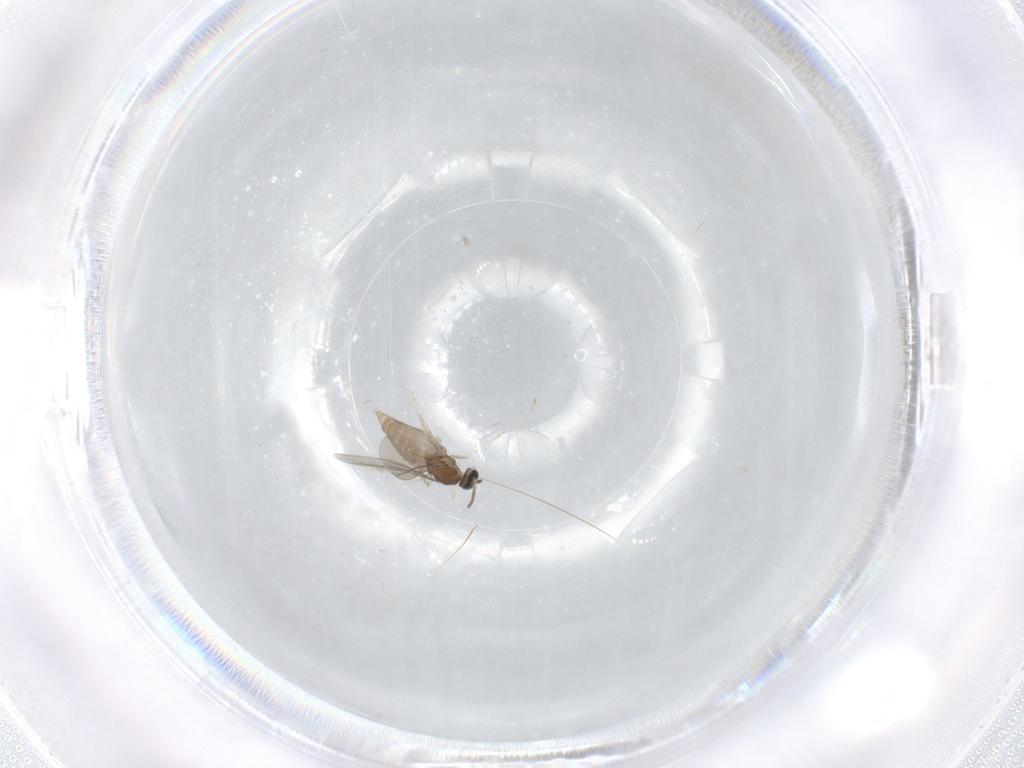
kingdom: Animalia
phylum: Arthropoda
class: Insecta
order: Diptera
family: Cecidomyiidae
